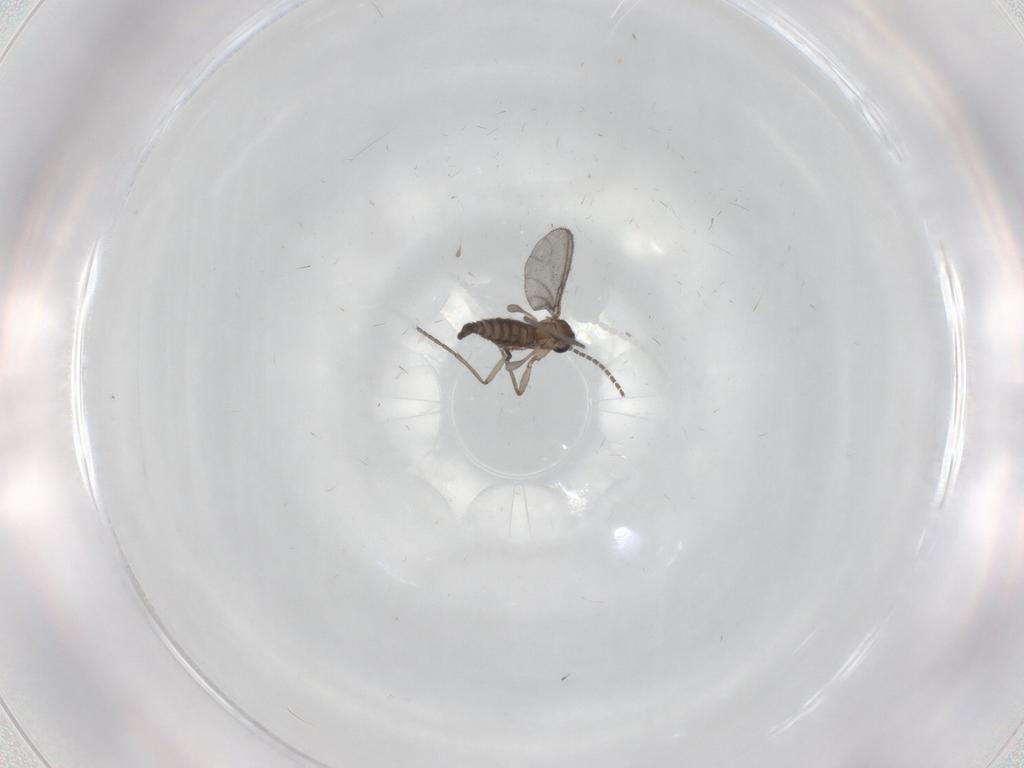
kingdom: Animalia
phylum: Arthropoda
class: Insecta
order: Diptera
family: Sciaridae
